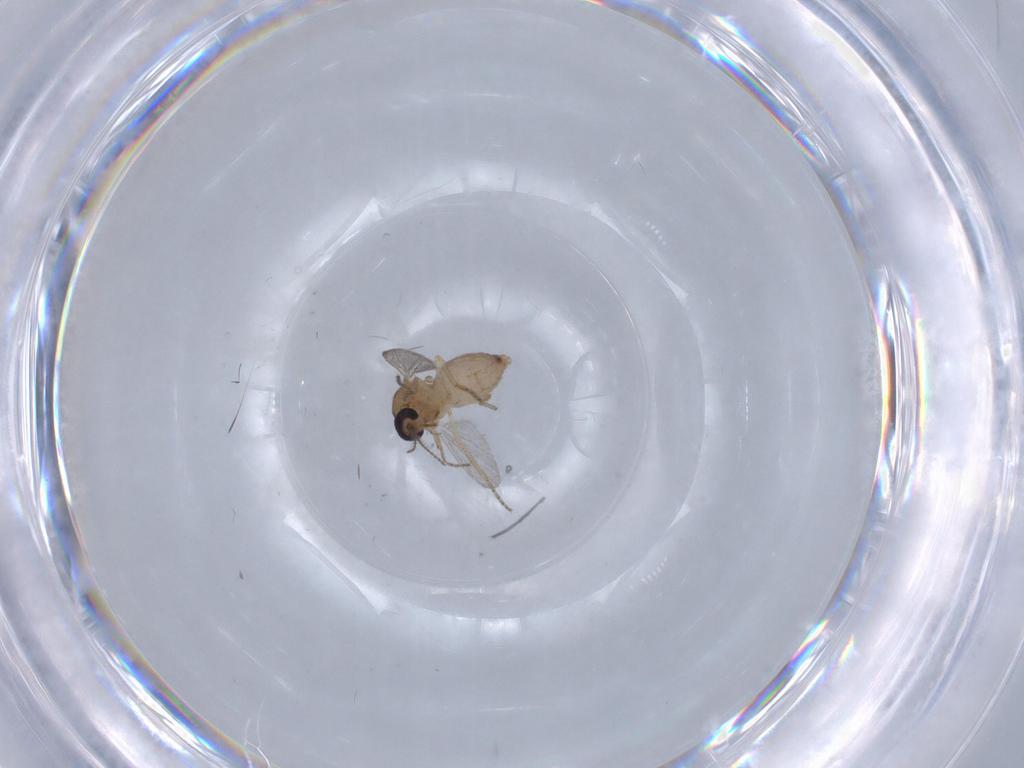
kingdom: Animalia
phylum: Arthropoda
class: Insecta
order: Diptera
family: Ceratopogonidae
